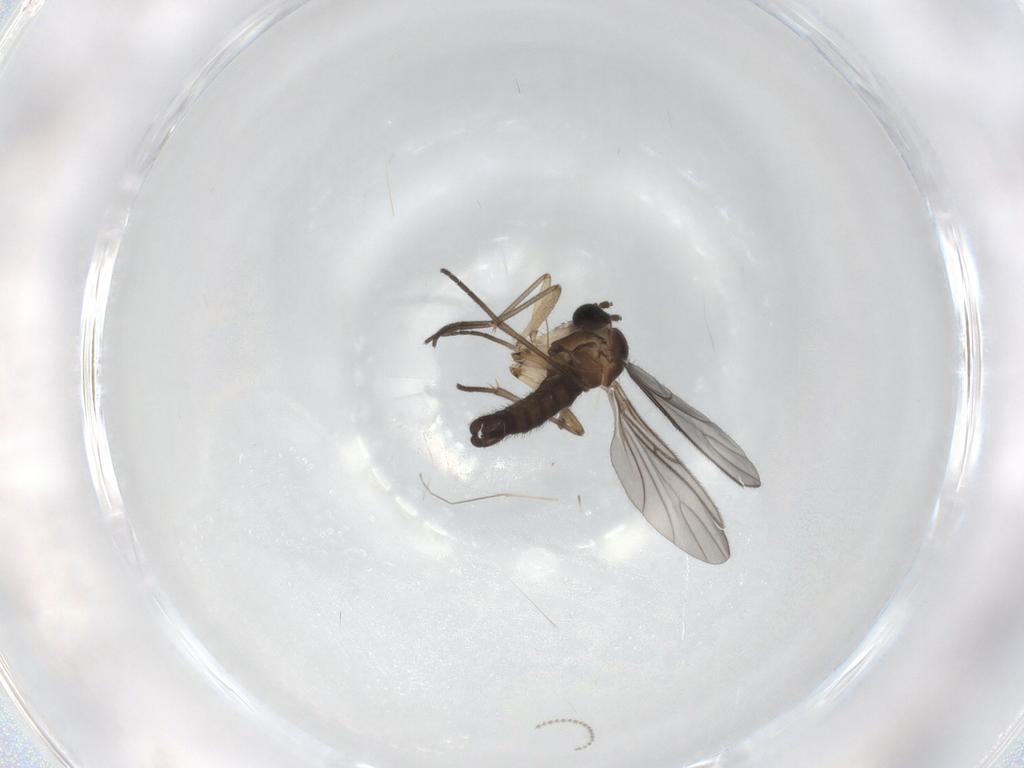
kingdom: Animalia
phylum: Arthropoda
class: Insecta
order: Diptera
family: Sciaridae
